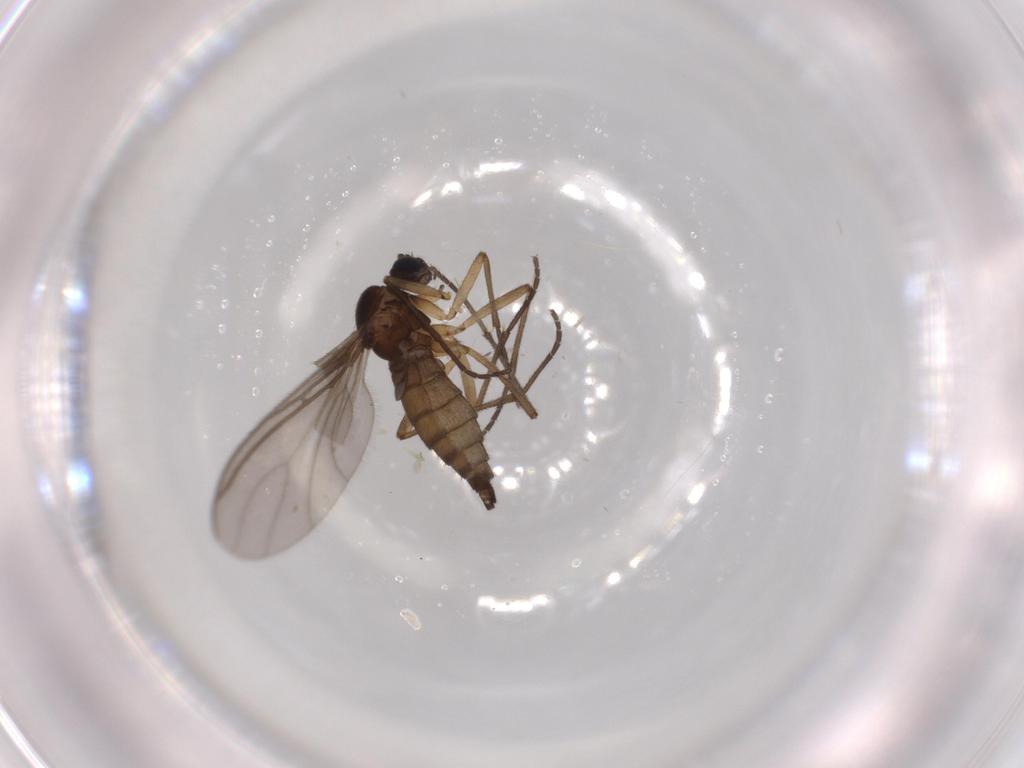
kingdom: Animalia
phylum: Arthropoda
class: Insecta
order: Diptera
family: Sciaridae
